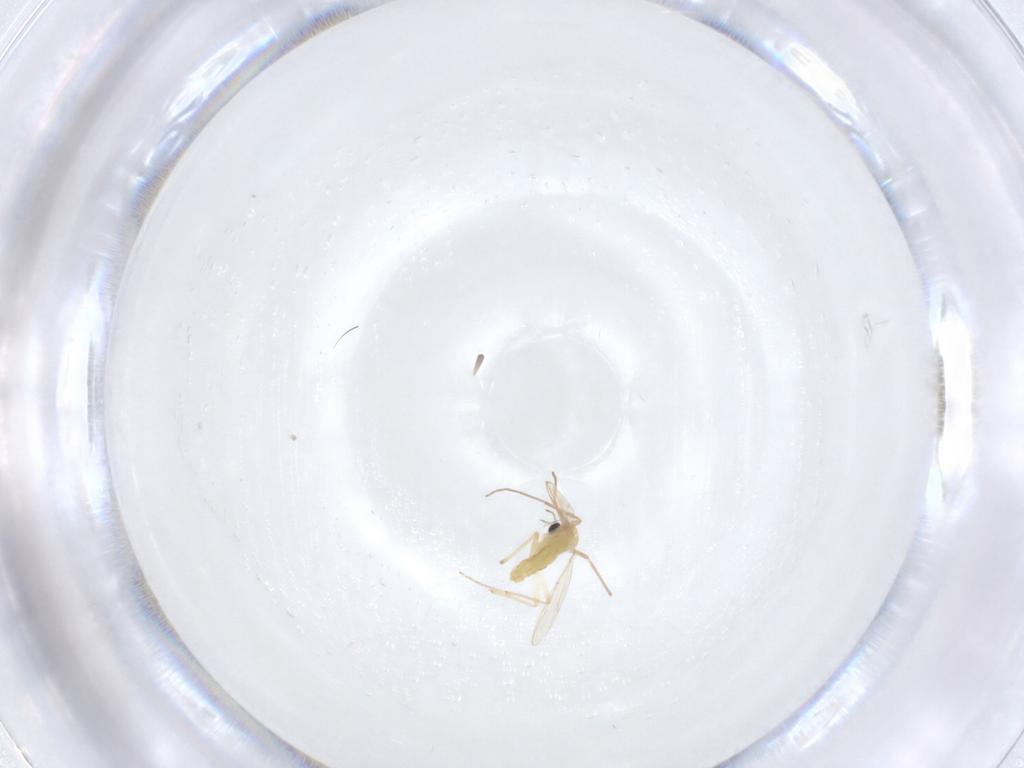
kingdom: Animalia
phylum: Arthropoda
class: Insecta
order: Diptera
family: Chironomidae
